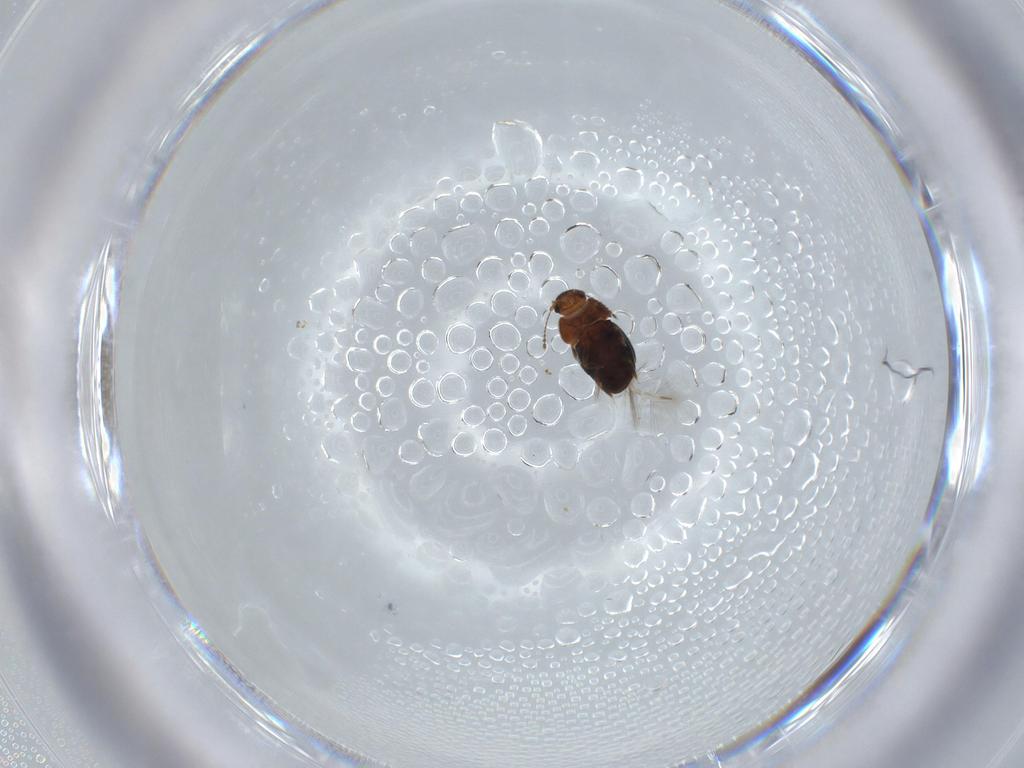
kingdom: Animalia
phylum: Arthropoda
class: Insecta
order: Coleoptera
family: Ptiliidae
